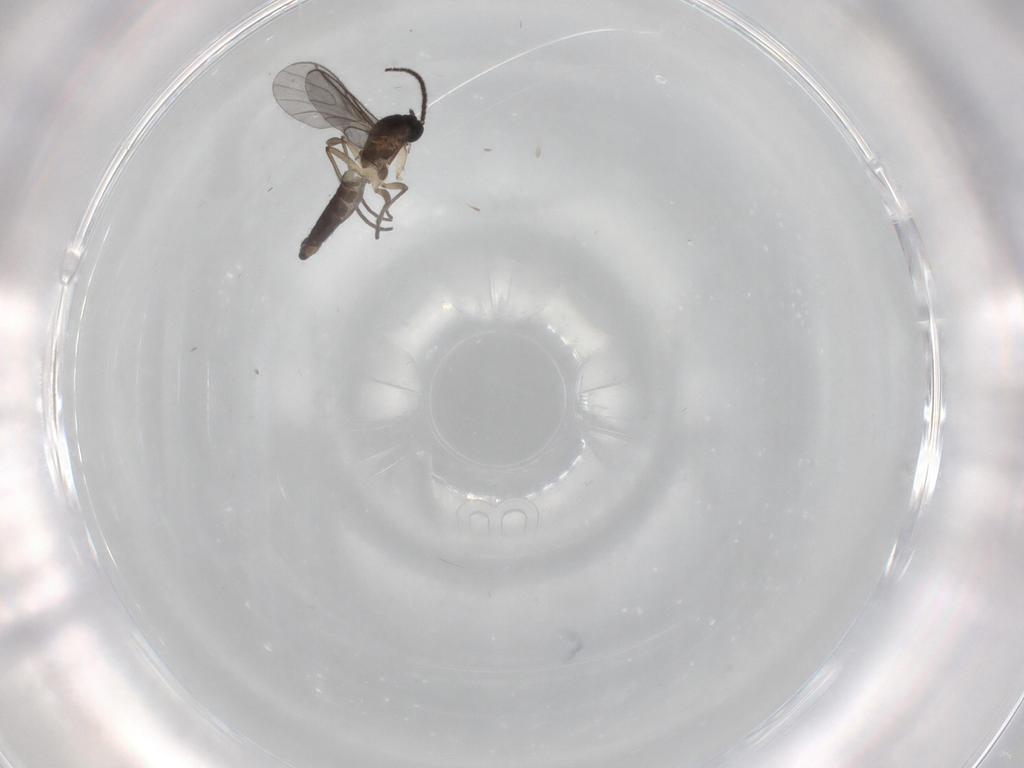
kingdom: Animalia
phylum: Arthropoda
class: Insecta
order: Diptera
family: Sciaridae
